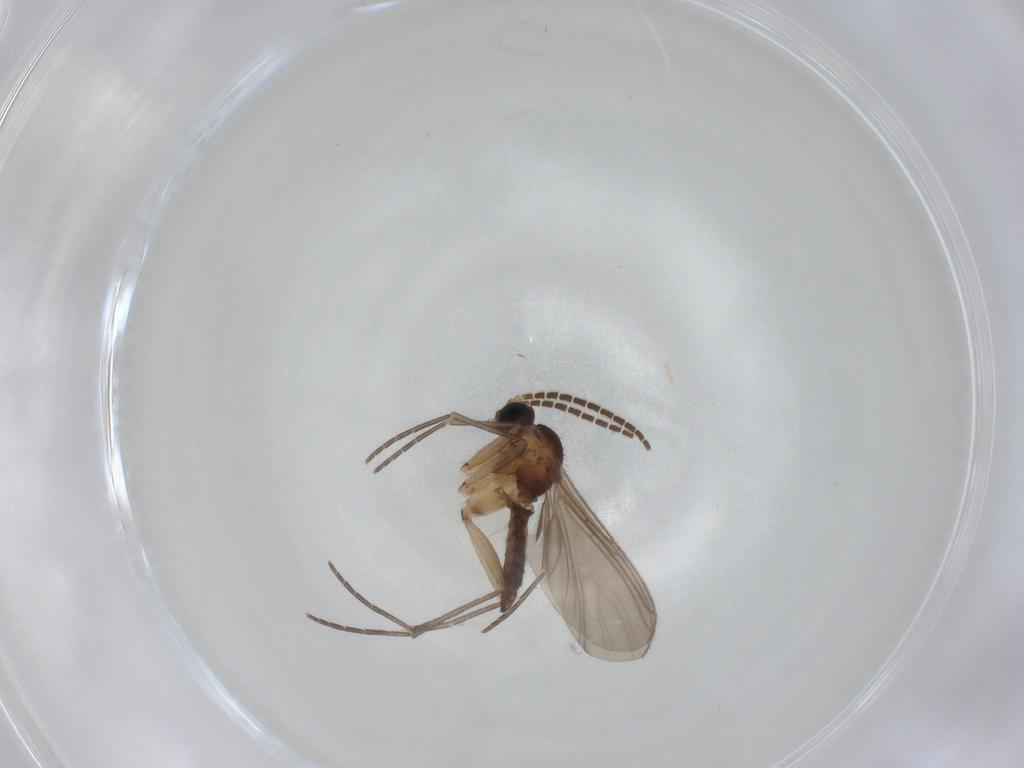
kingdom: Animalia
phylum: Arthropoda
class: Insecta
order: Diptera
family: Sciaridae
